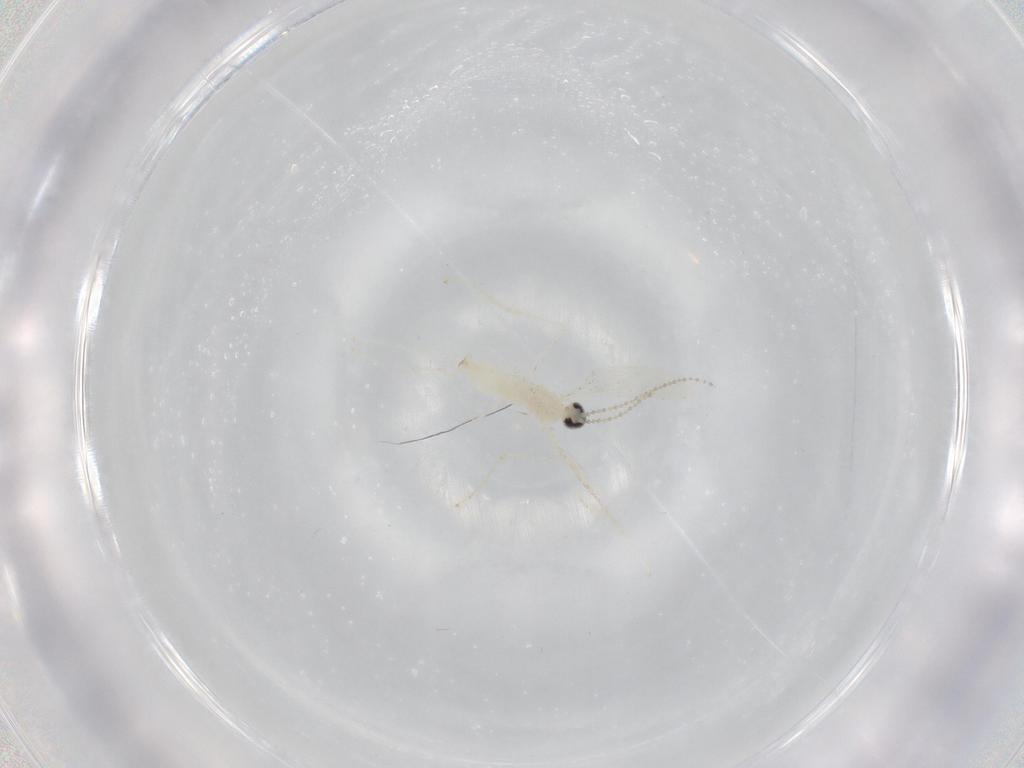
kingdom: Animalia
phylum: Arthropoda
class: Insecta
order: Diptera
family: Cecidomyiidae
